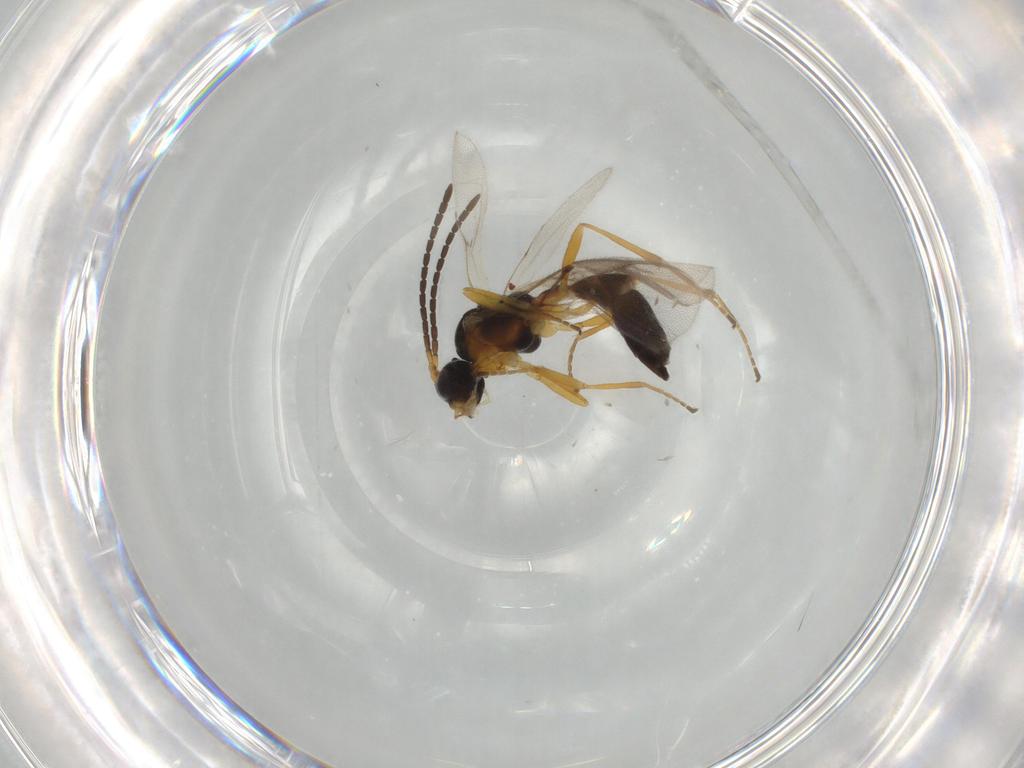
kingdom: Animalia
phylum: Arthropoda
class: Insecta
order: Hymenoptera
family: Braconidae
